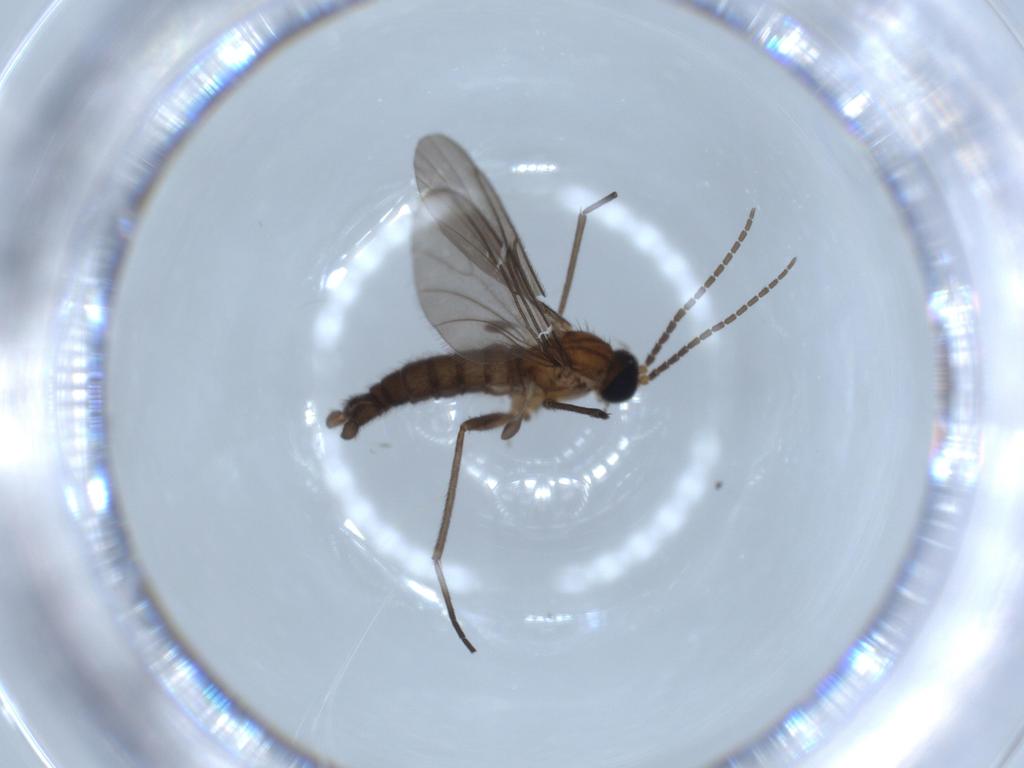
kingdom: Animalia
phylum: Arthropoda
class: Insecta
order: Diptera
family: Sciaridae
